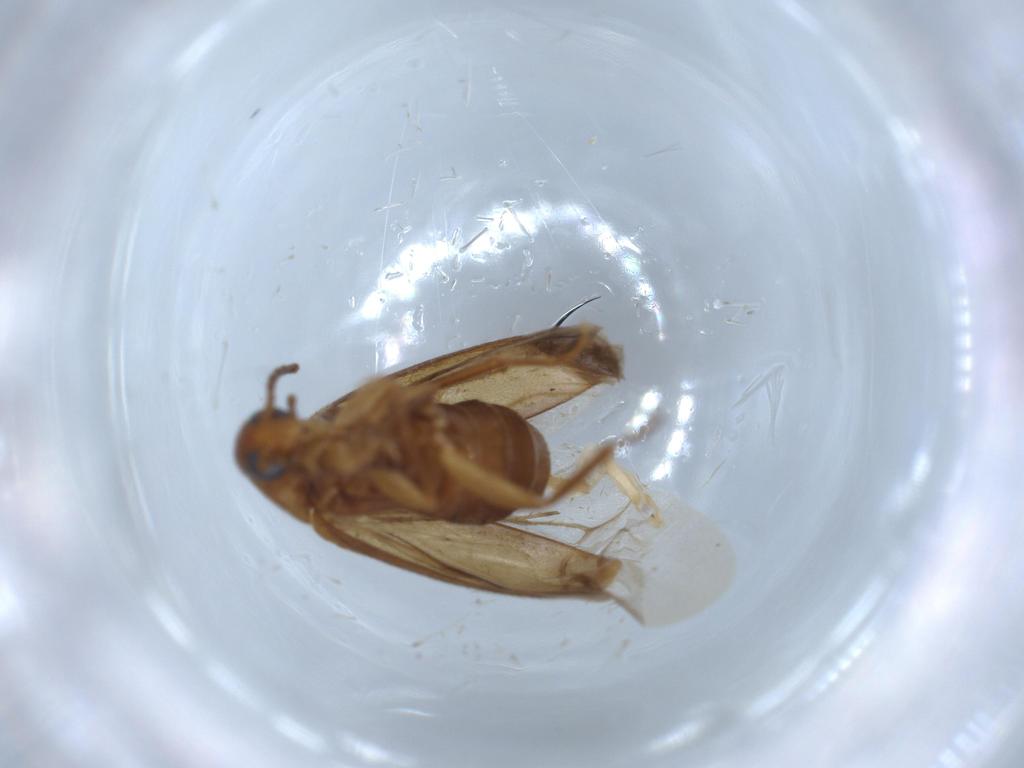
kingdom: Animalia
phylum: Arthropoda
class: Insecta
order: Coleoptera
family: Scraptiidae
